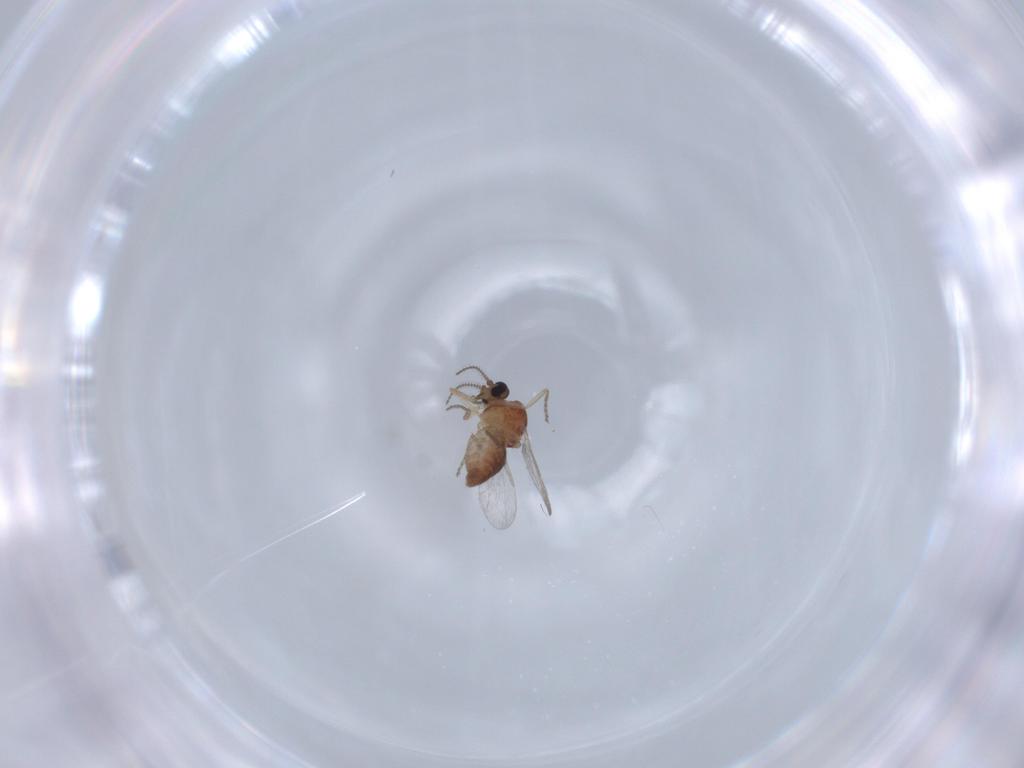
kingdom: Animalia
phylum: Arthropoda
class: Insecta
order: Diptera
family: Ceratopogonidae
